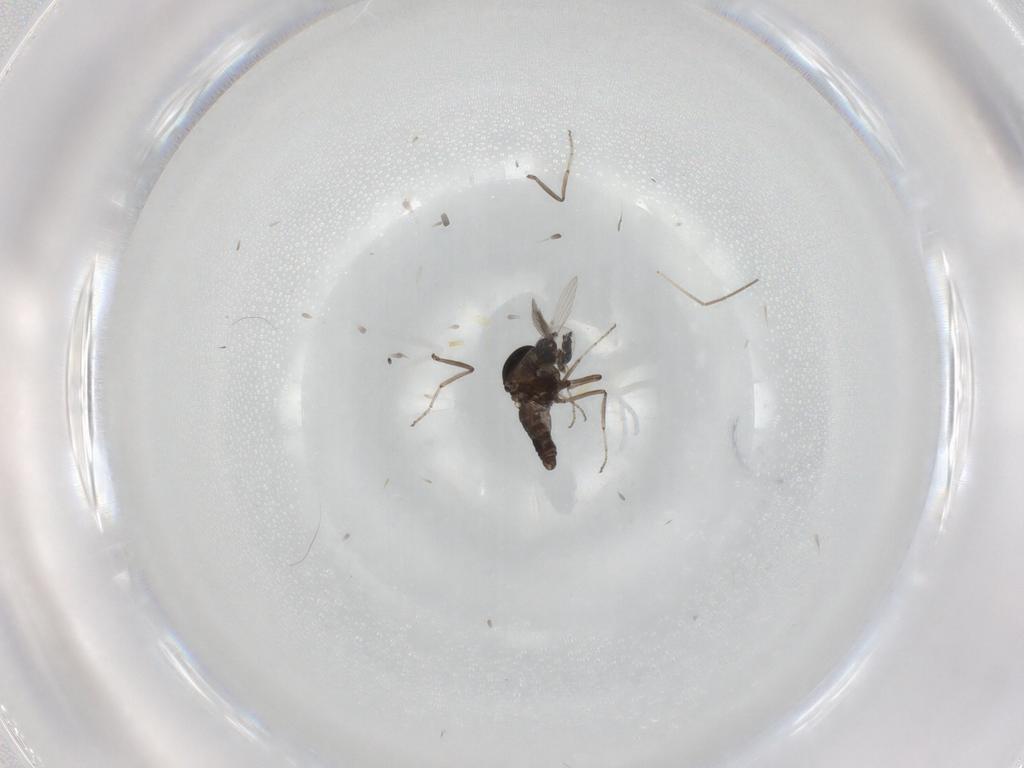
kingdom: Animalia
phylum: Arthropoda
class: Insecta
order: Diptera
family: Ceratopogonidae
